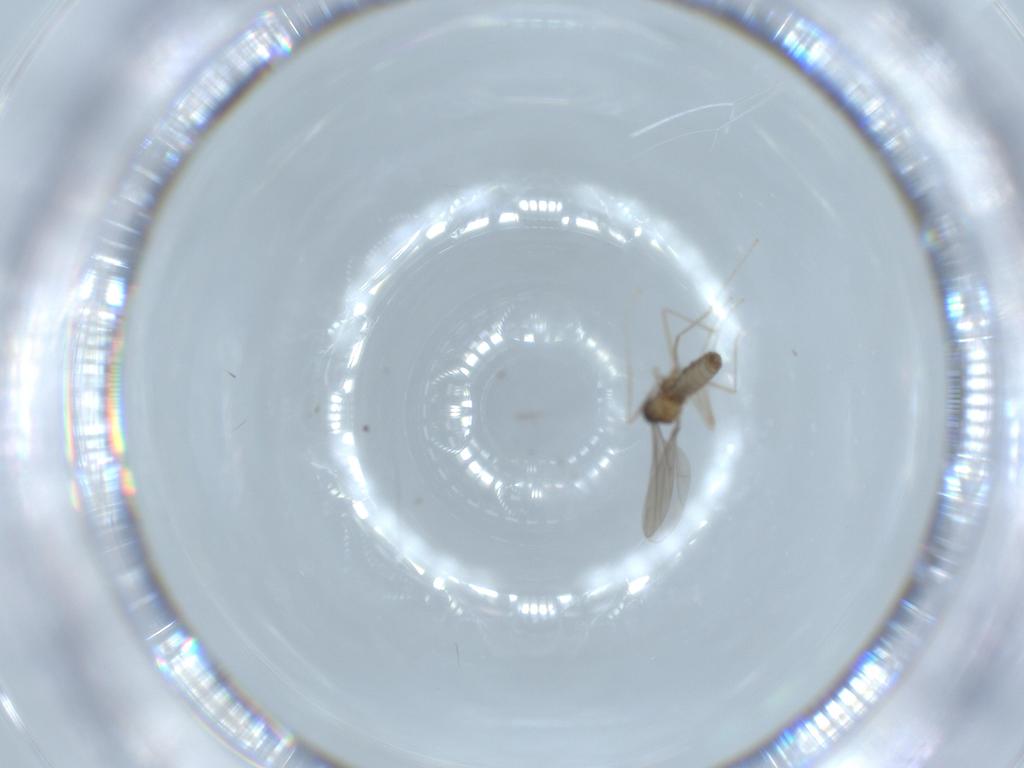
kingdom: Animalia
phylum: Arthropoda
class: Insecta
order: Diptera
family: Cecidomyiidae
